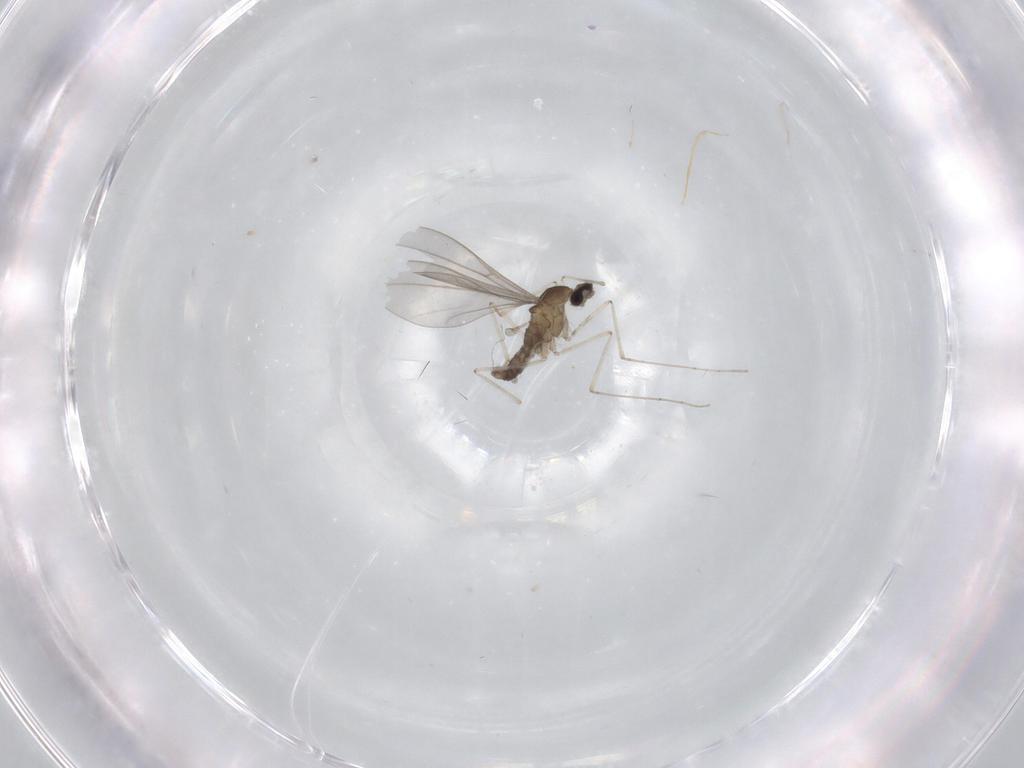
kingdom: Animalia
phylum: Arthropoda
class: Insecta
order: Diptera
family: Cecidomyiidae
